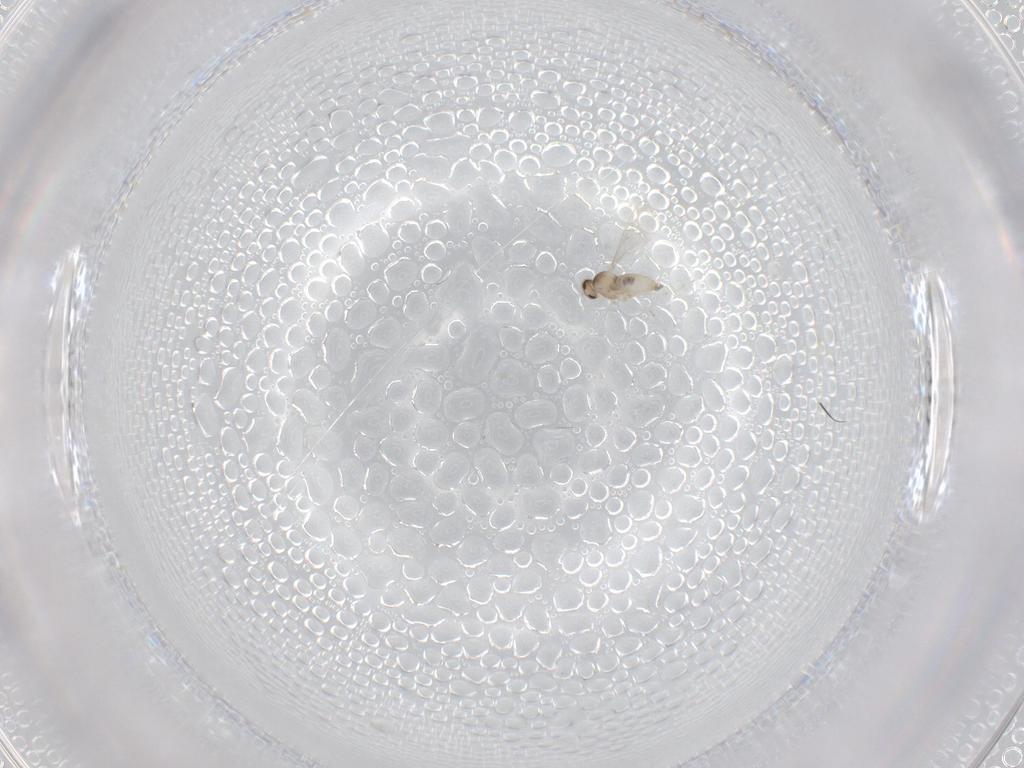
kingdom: Animalia
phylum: Arthropoda
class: Insecta
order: Diptera
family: Cecidomyiidae
